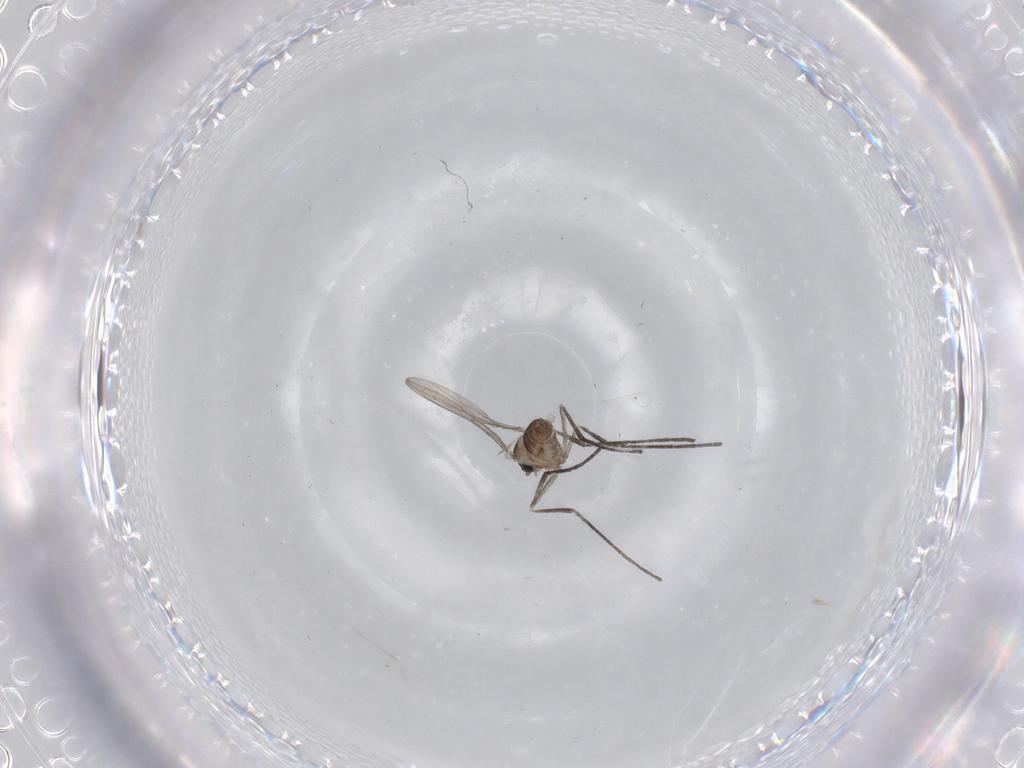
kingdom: Animalia
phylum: Arthropoda
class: Insecta
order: Diptera
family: Cecidomyiidae
